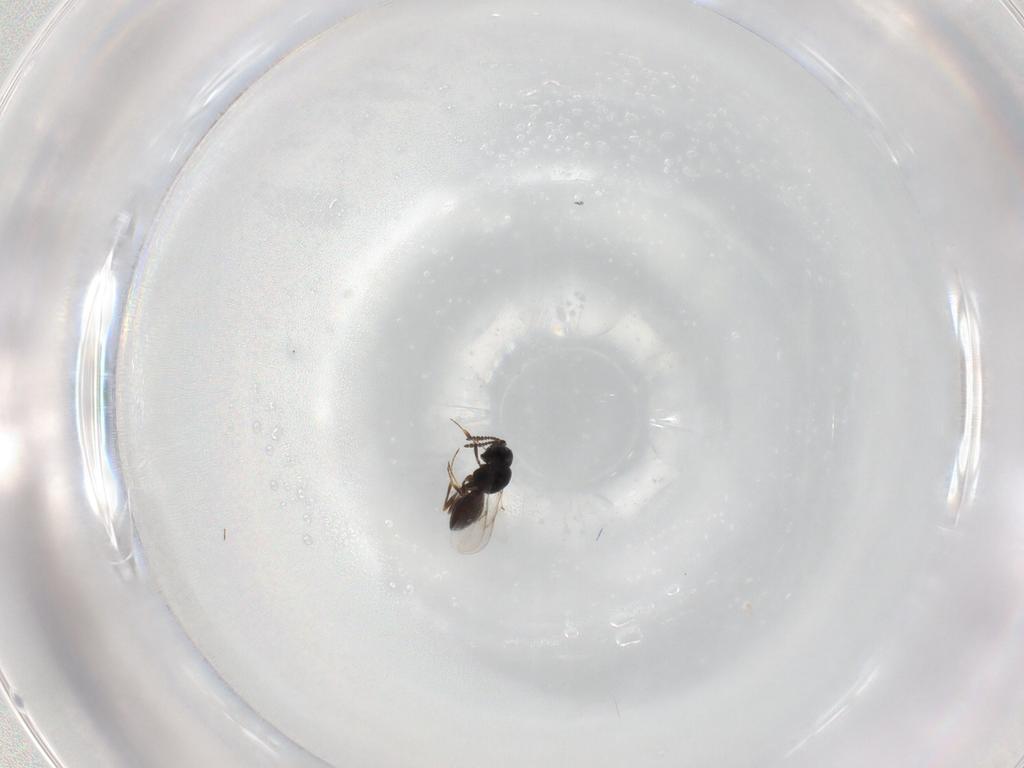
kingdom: Animalia
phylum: Arthropoda
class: Insecta
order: Hymenoptera
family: Scelionidae
